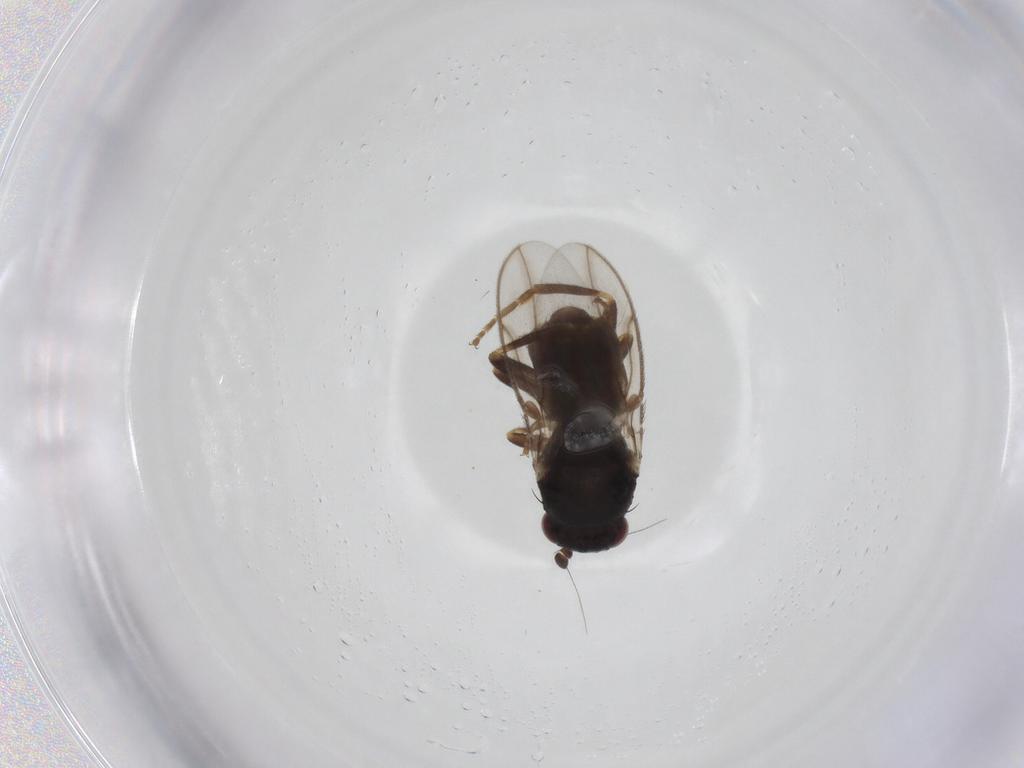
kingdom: Animalia
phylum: Arthropoda
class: Insecta
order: Diptera
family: Sphaeroceridae
